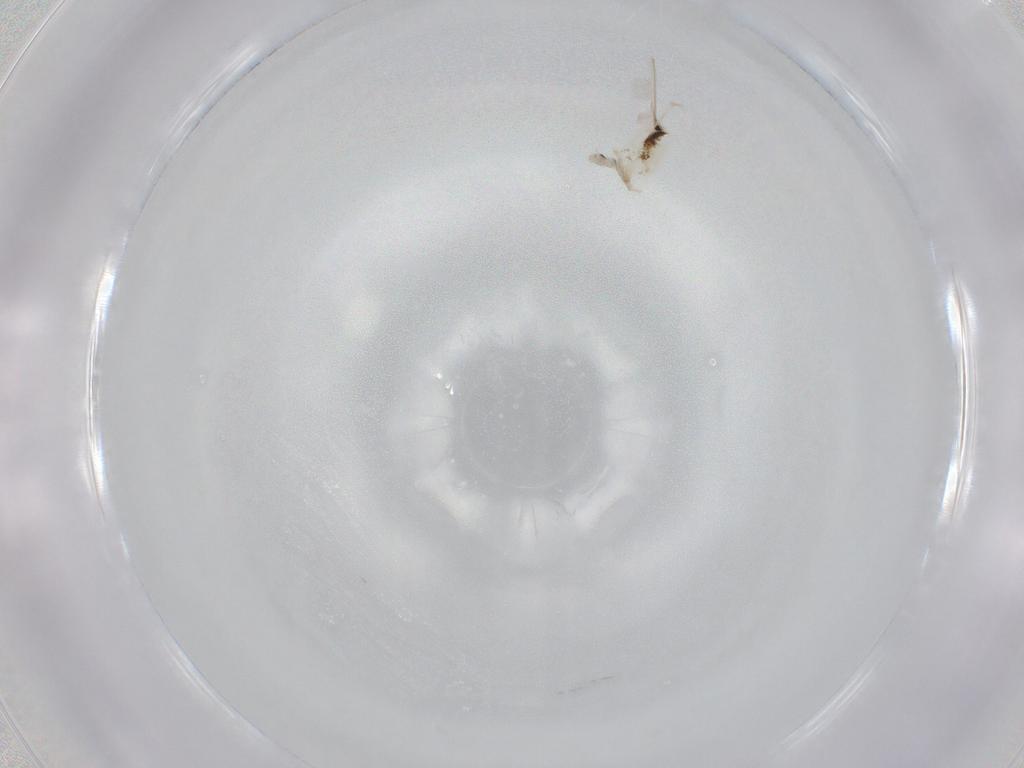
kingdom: Animalia
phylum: Arthropoda
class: Collembola
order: Entomobryomorpha
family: Entomobryidae
